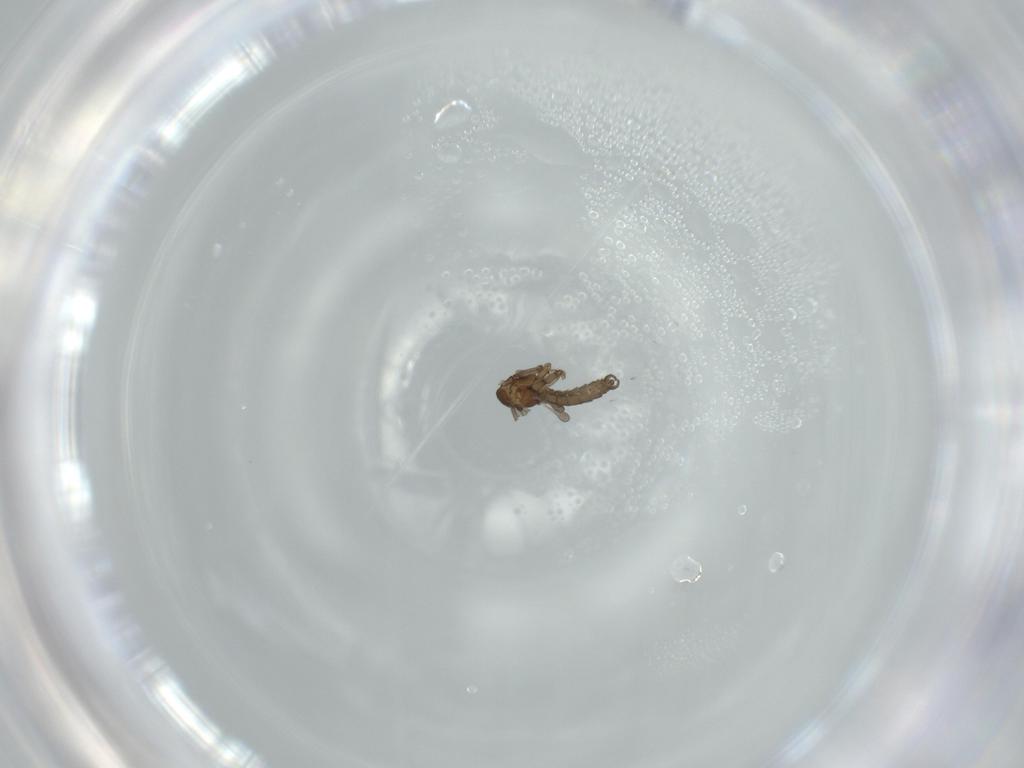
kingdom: Animalia
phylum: Arthropoda
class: Insecta
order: Diptera
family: Sciaridae
